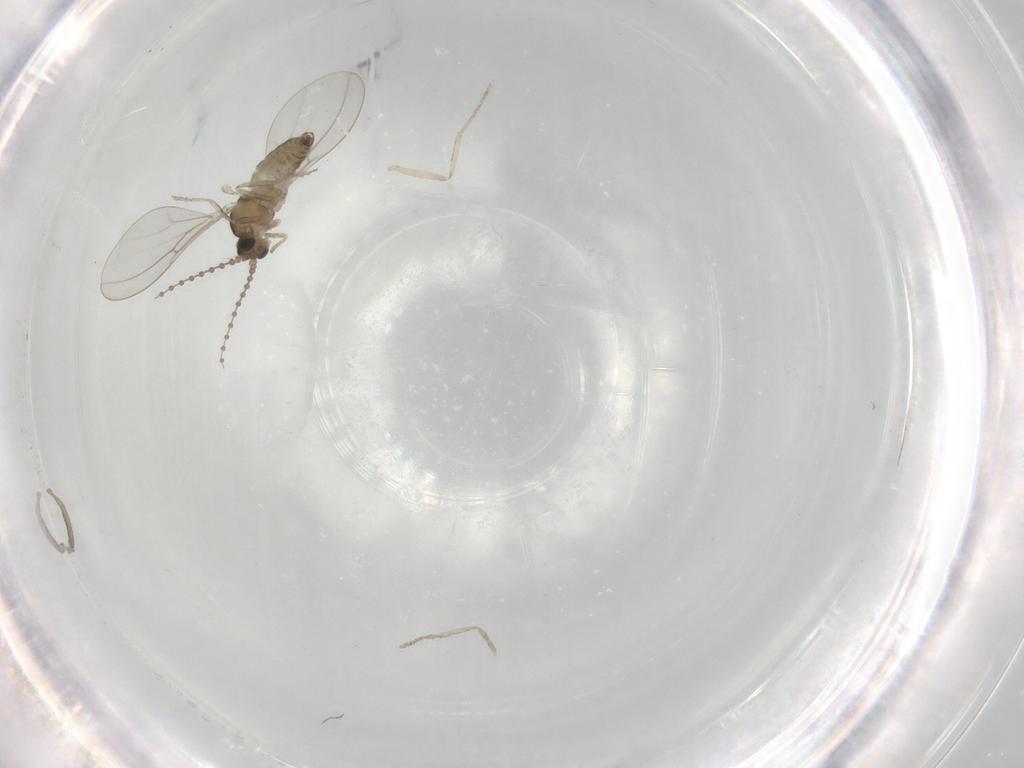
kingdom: Animalia
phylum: Arthropoda
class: Insecta
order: Diptera
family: Cecidomyiidae
